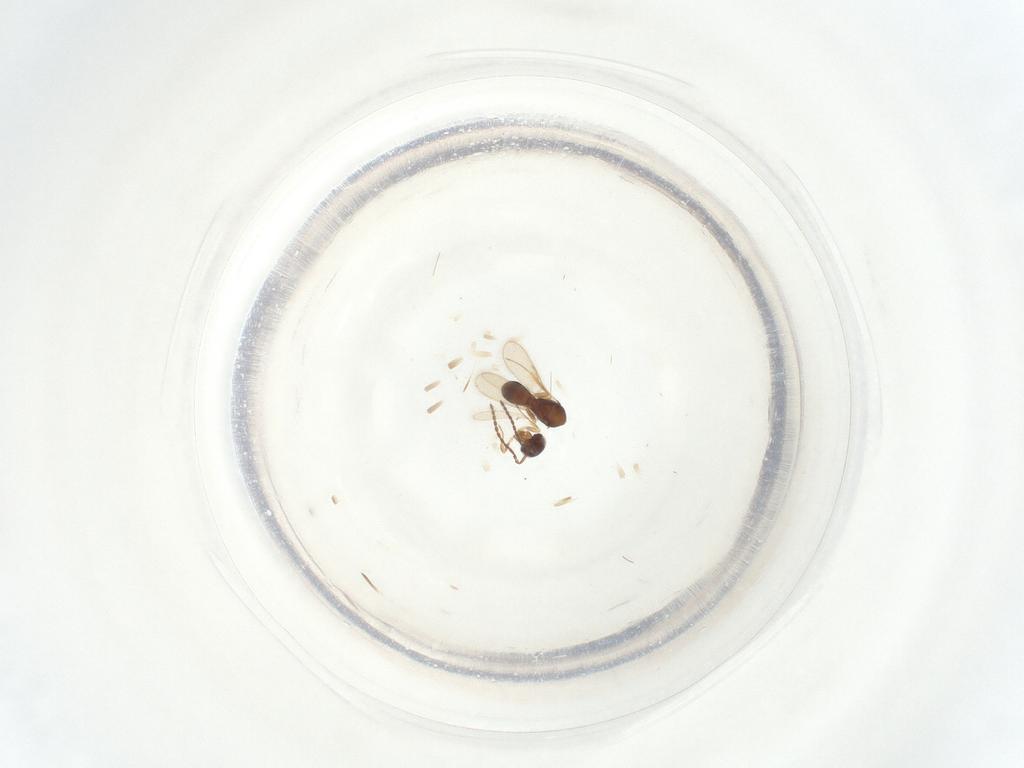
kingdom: Animalia
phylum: Arthropoda
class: Insecta
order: Hymenoptera
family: Scelionidae
